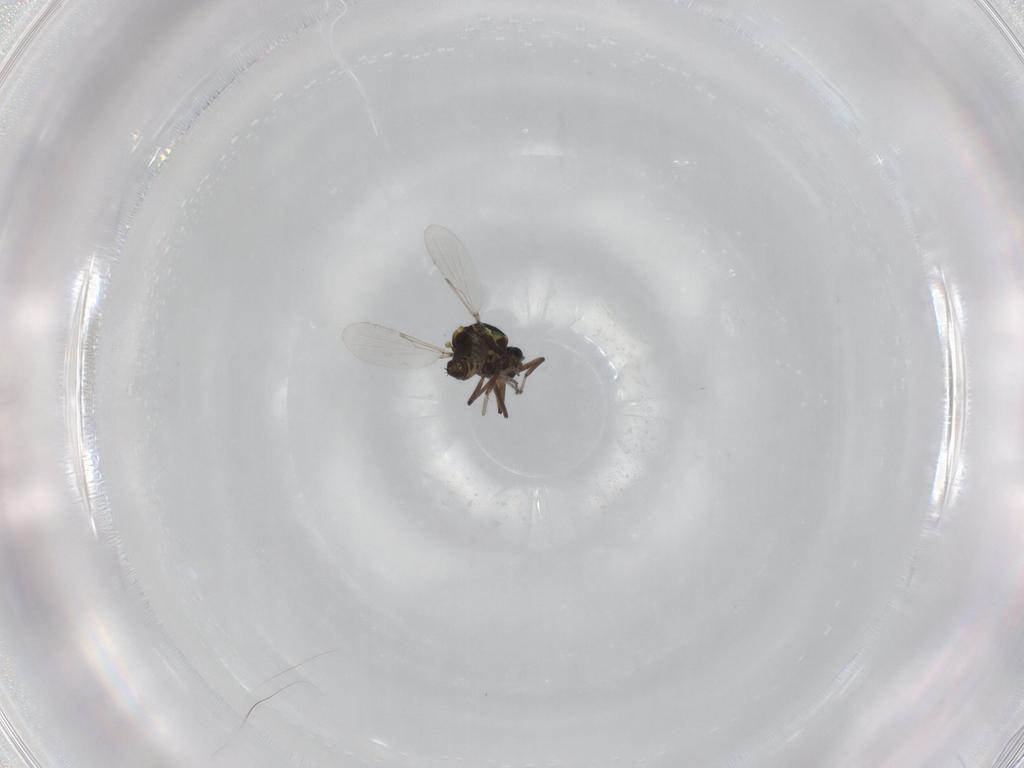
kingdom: Animalia
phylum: Arthropoda
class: Insecta
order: Diptera
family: Ceratopogonidae
